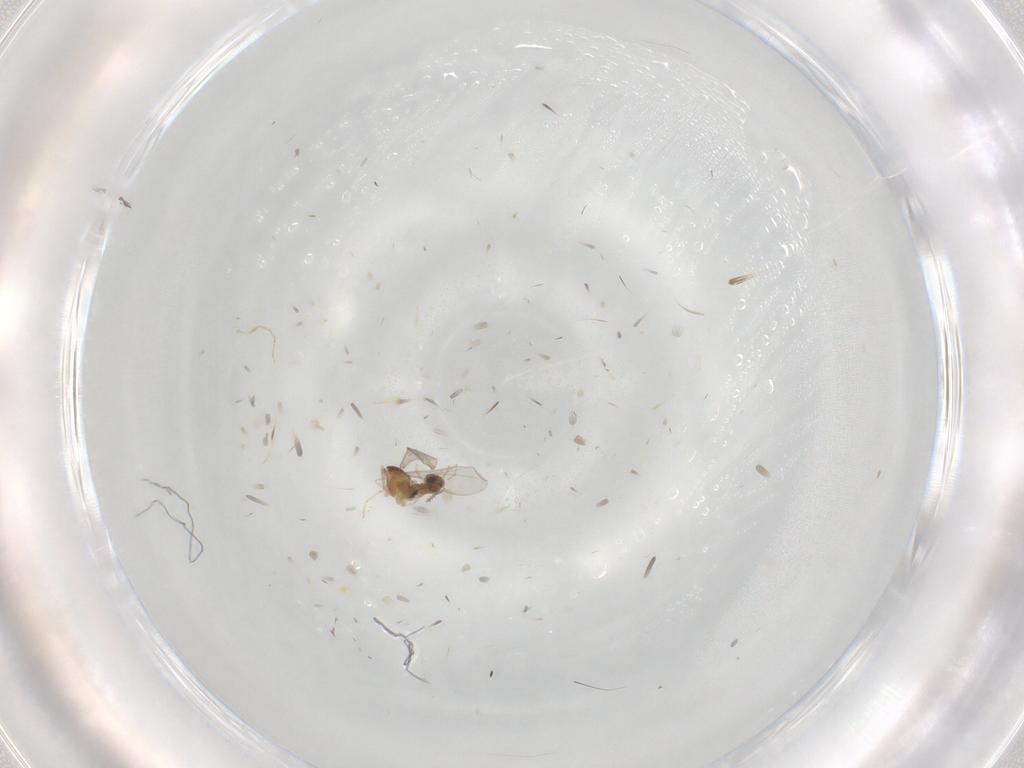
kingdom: Animalia
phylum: Arthropoda
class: Insecta
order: Diptera
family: Cecidomyiidae
